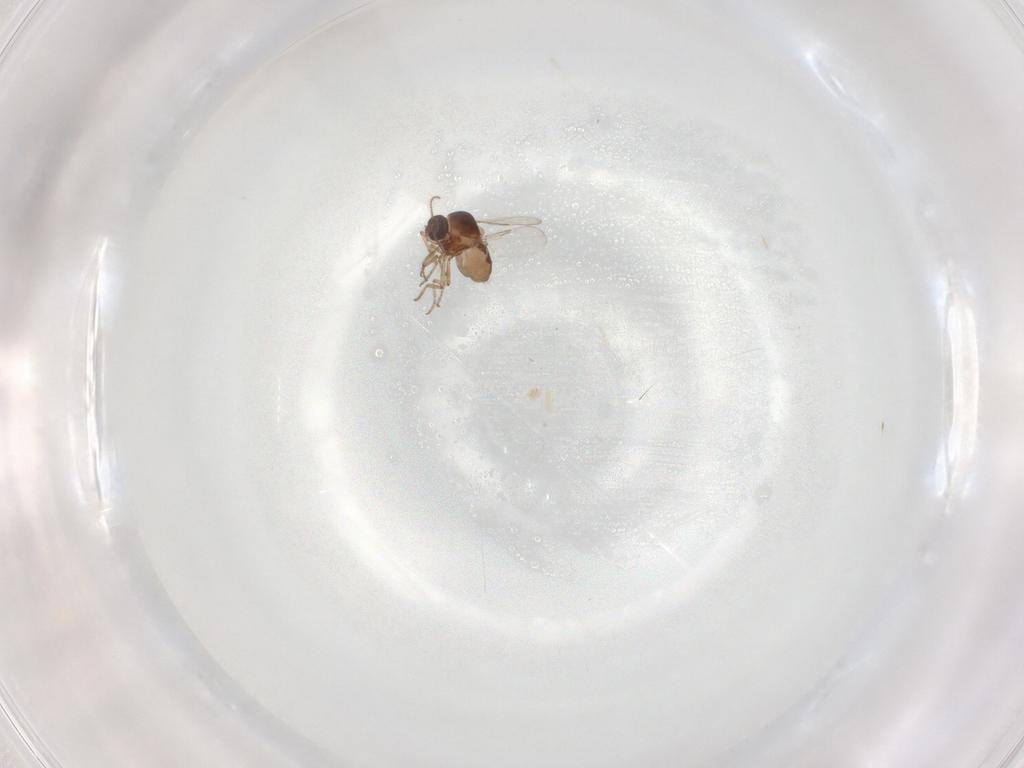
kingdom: Animalia
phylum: Arthropoda
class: Insecta
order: Diptera
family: Ceratopogonidae
